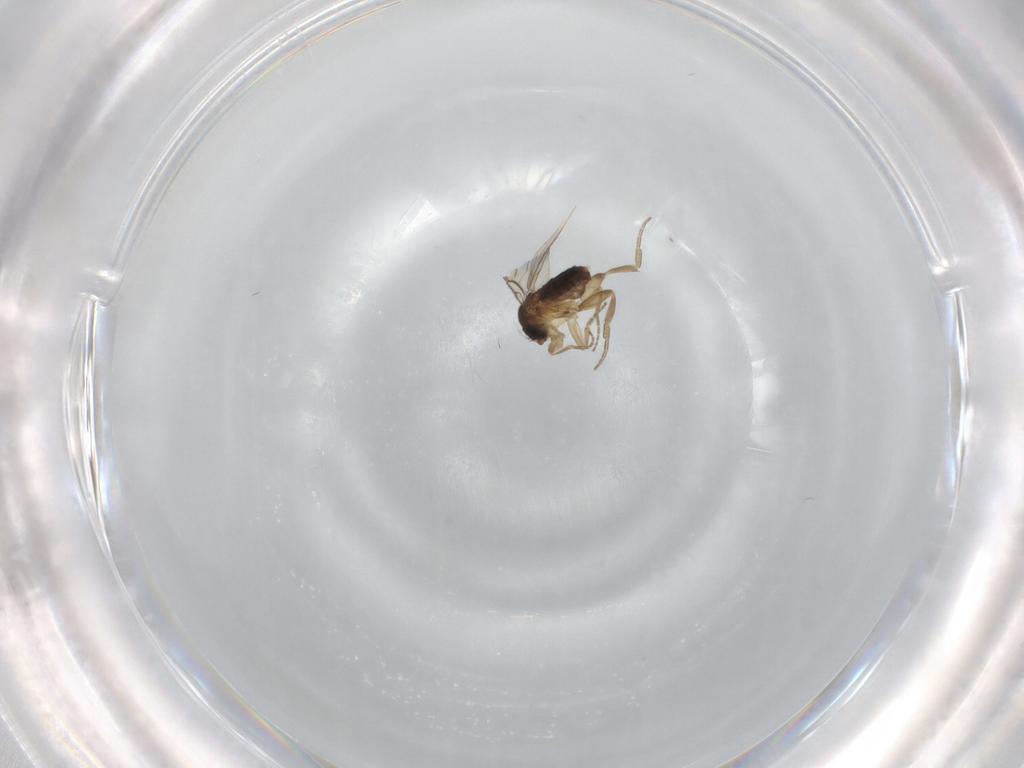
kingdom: Animalia
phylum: Arthropoda
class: Insecta
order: Diptera
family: Phoridae
